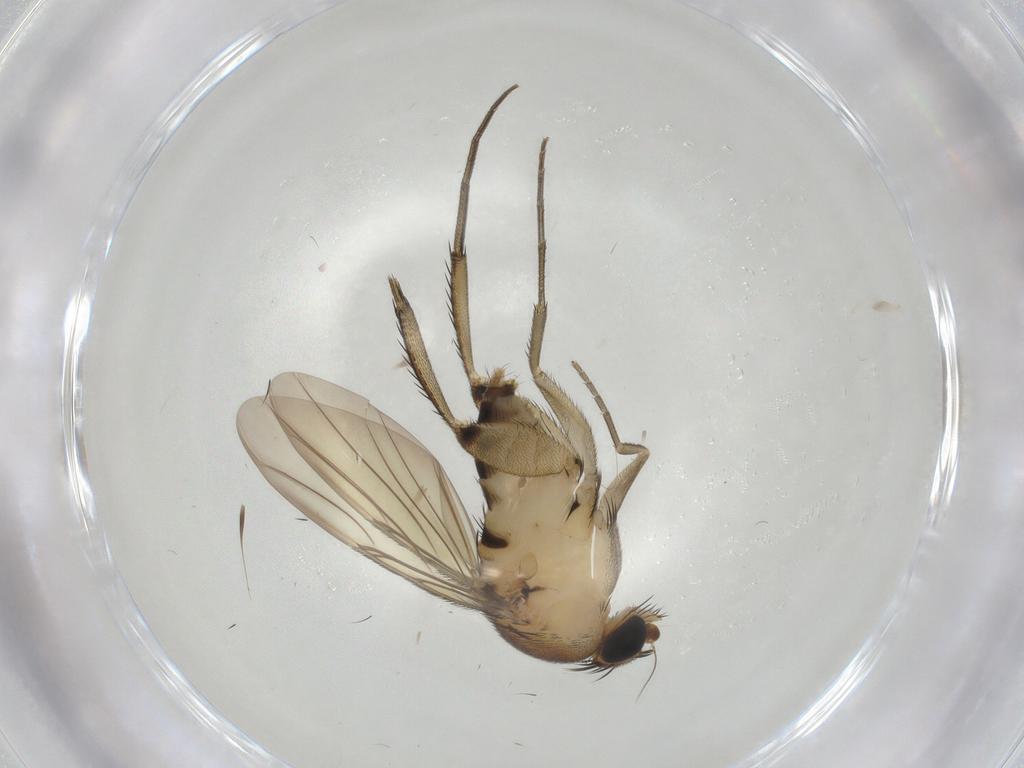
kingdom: Animalia
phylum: Arthropoda
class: Insecta
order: Diptera
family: Phoridae
